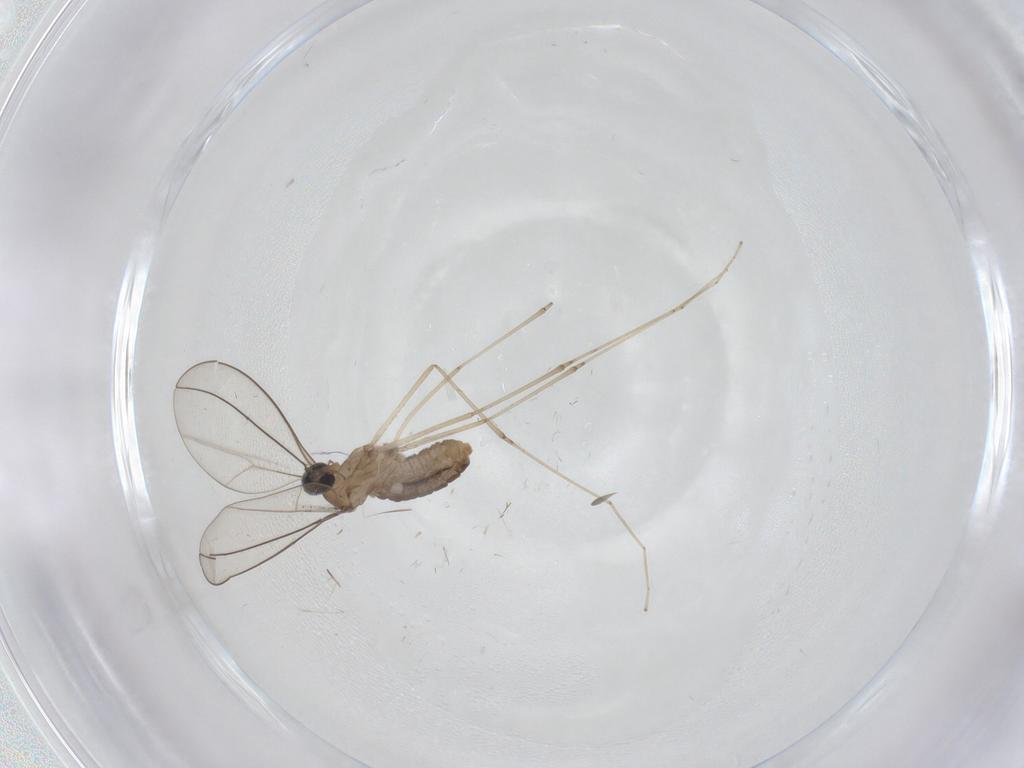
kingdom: Animalia
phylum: Arthropoda
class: Insecta
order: Diptera
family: Cecidomyiidae
